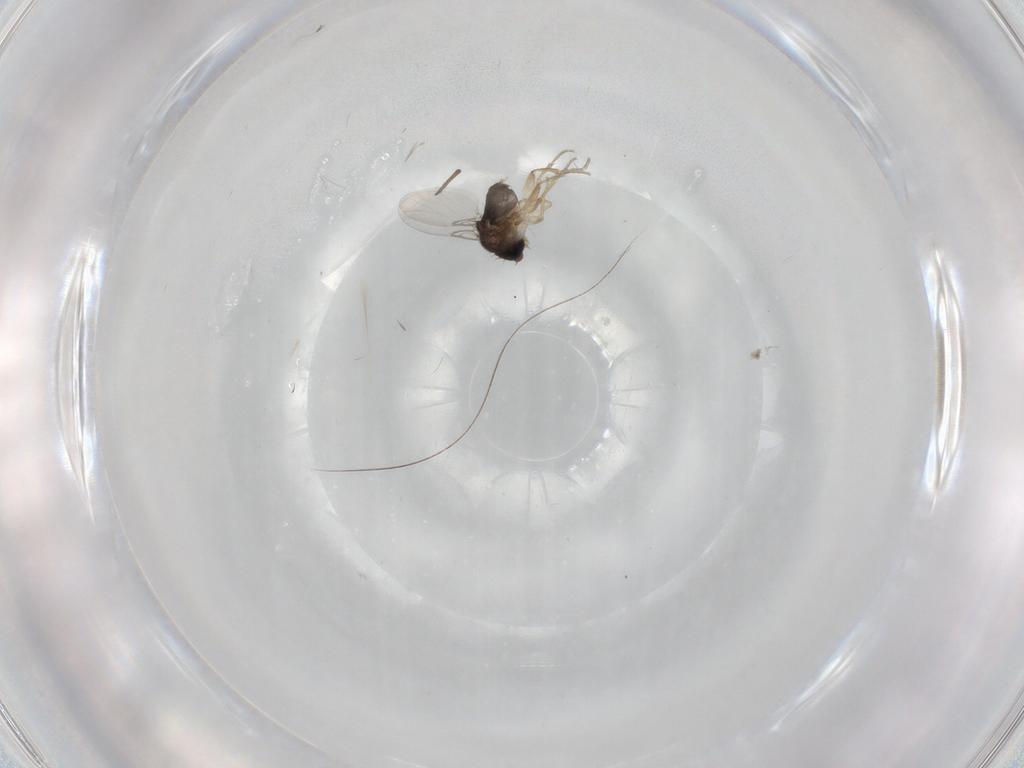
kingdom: Animalia
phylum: Arthropoda
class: Insecta
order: Diptera
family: Phoridae
